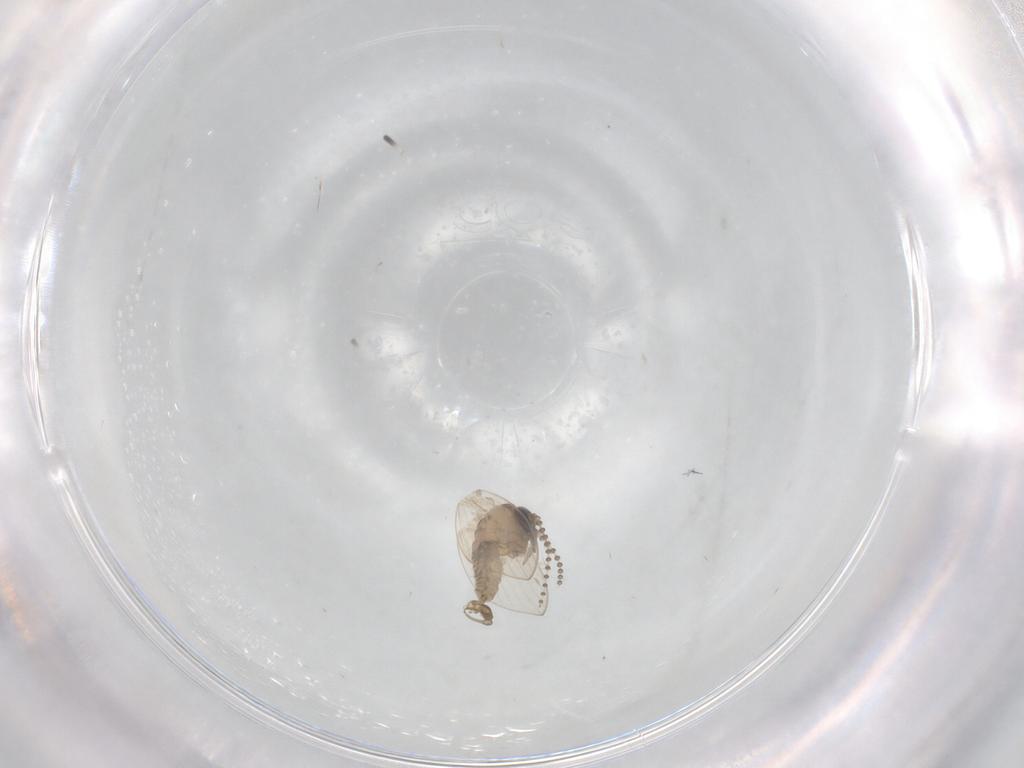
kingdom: Animalia
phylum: Arthropoda
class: Insecta
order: Diptera
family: Psychodidae
